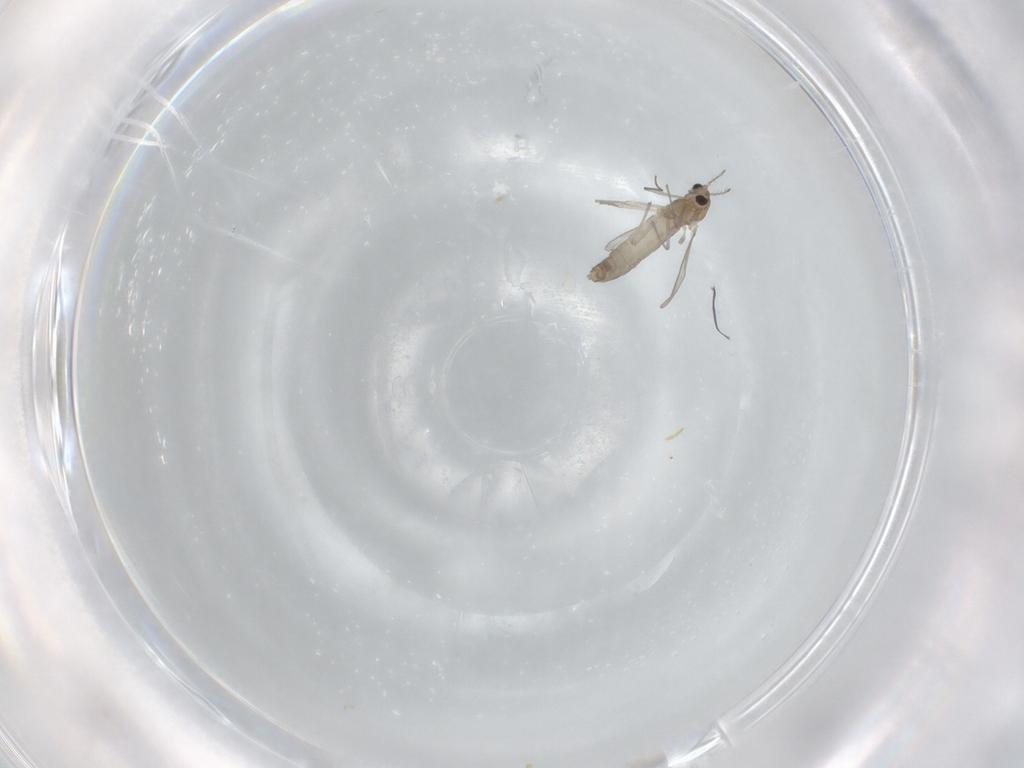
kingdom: Animalia
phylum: Arthropoda
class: Insecta
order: Diptera
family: Chironomidae
